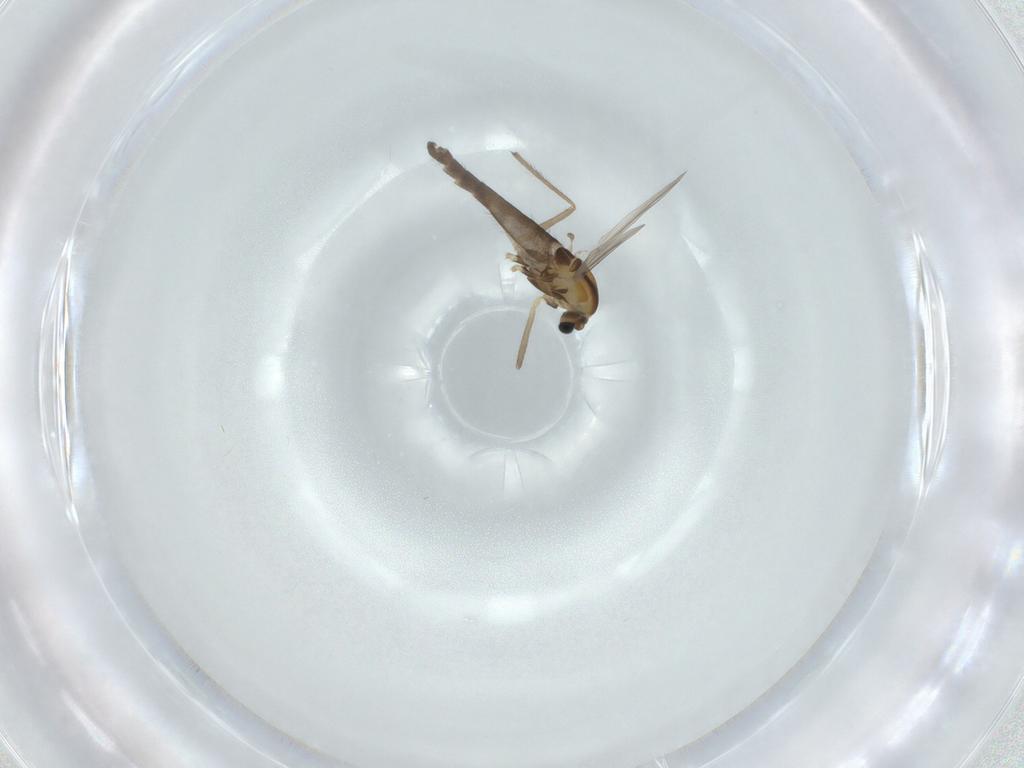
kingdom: Animalia
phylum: Arthropoda
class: Insecta
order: Diptera
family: Chironomidae
